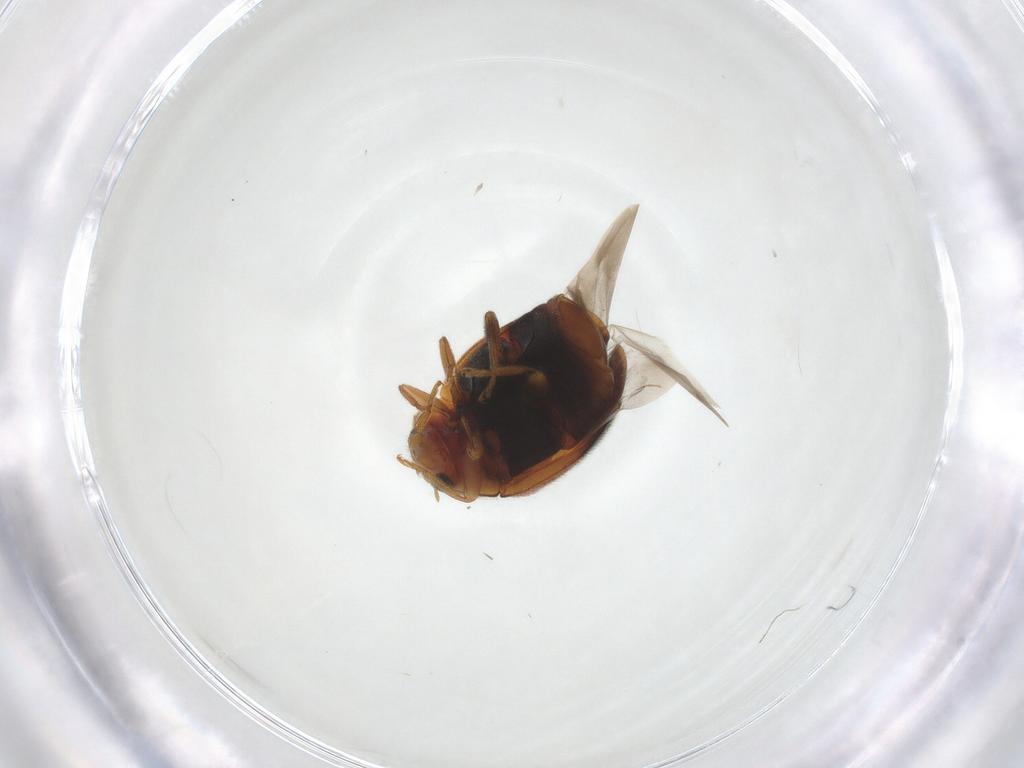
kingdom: Animalia
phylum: Arthropoda
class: Insecta
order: Coleoptera
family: Coccinellidae
